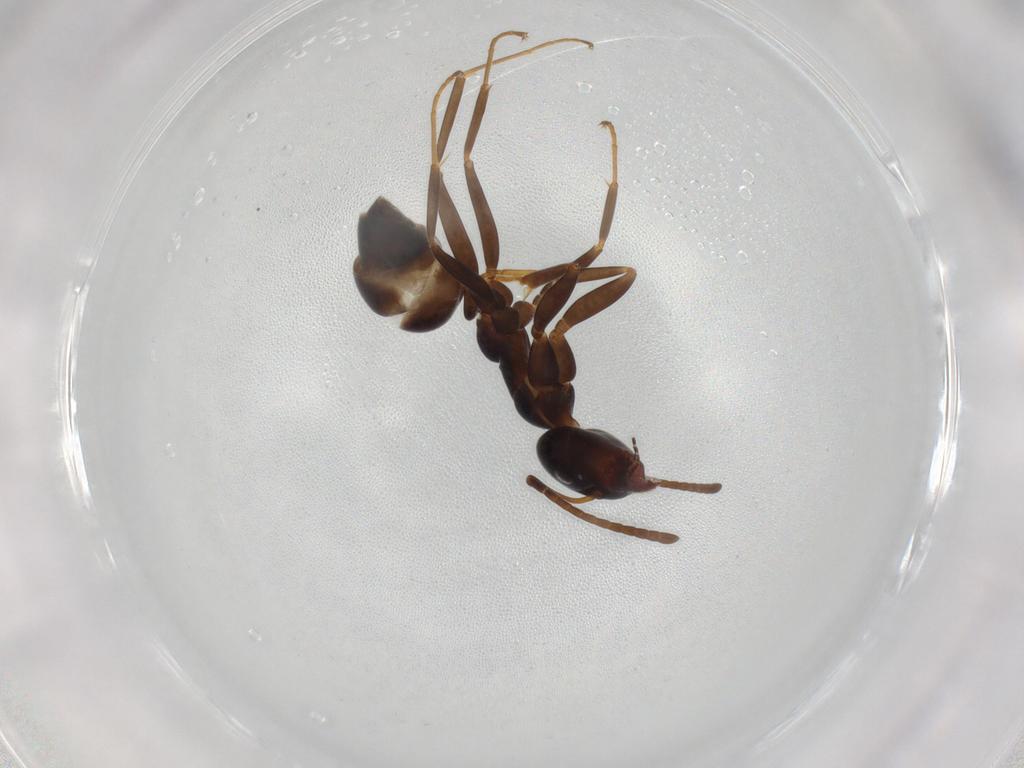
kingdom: Animalia
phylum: Arthropoda
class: Insecta
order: Hymenoptera
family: Formicidae
